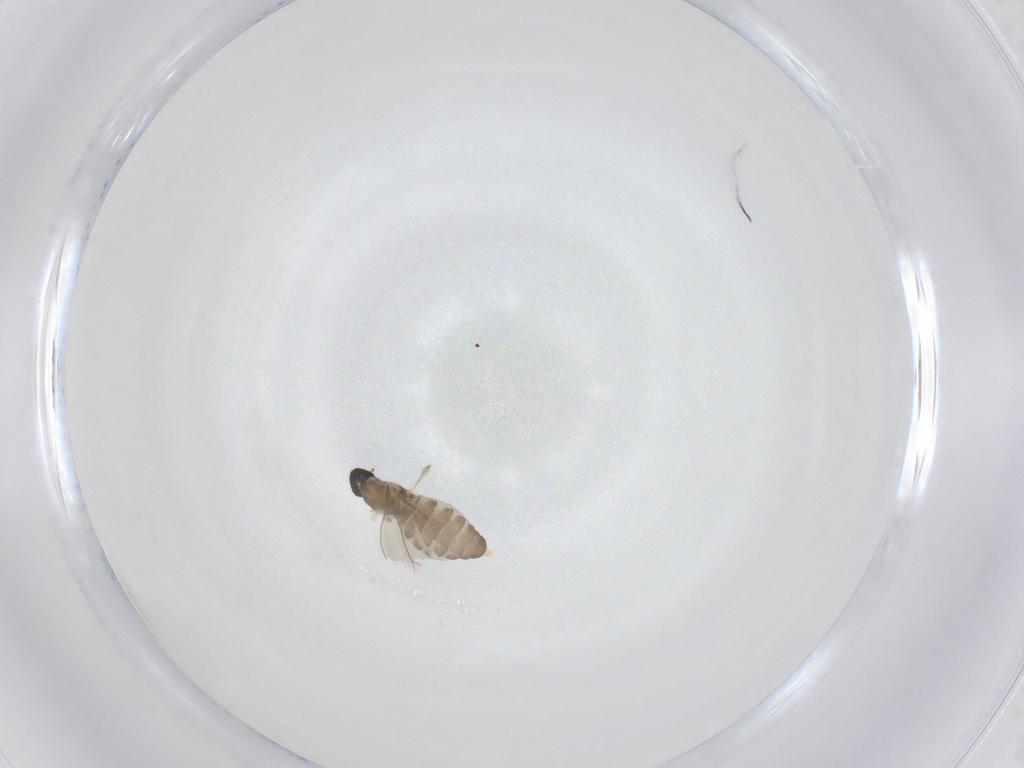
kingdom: Animalia
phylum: Arthropoda
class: Insecta
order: Diptera
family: Cecidomyiidae
